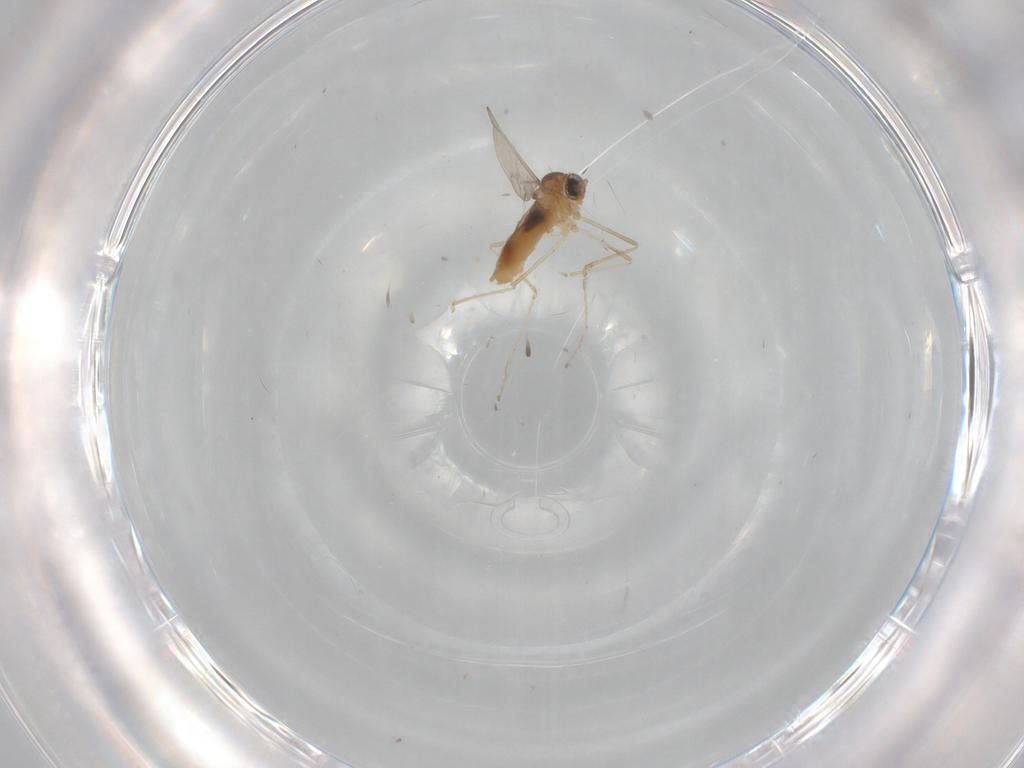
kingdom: Animalia
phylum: Arthropoda
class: Insecta
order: Diptera
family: Cecidomyiidae
